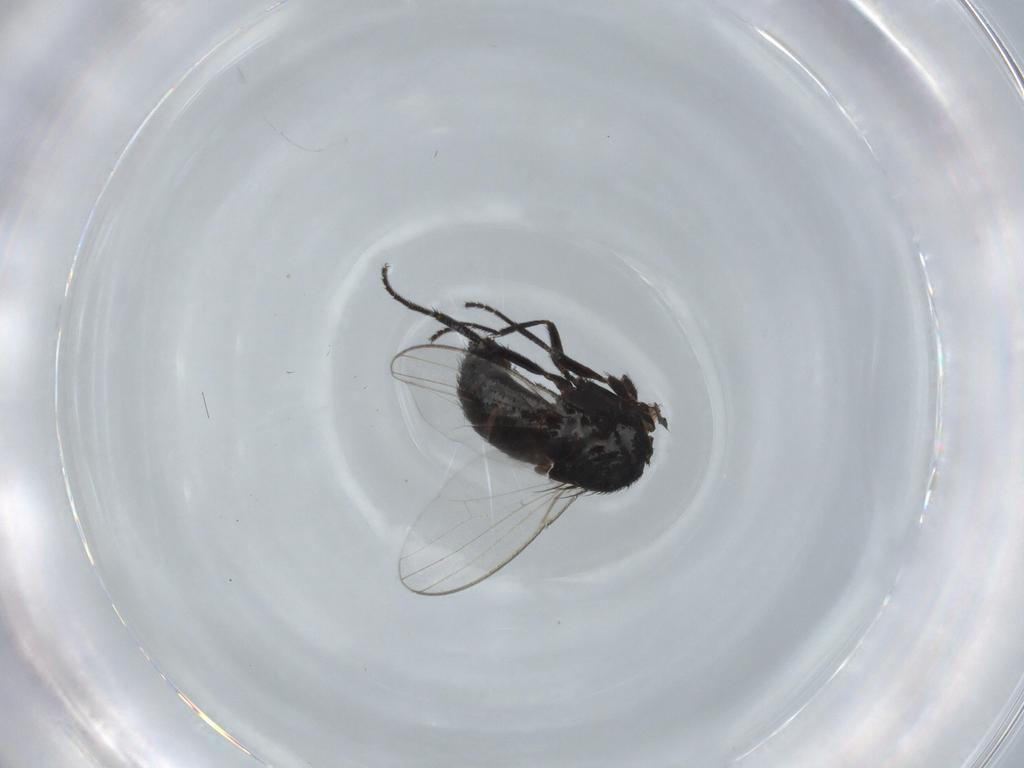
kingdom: Animalia
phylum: Arthropoda
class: Insecta
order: Diptera
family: Milichiidae
